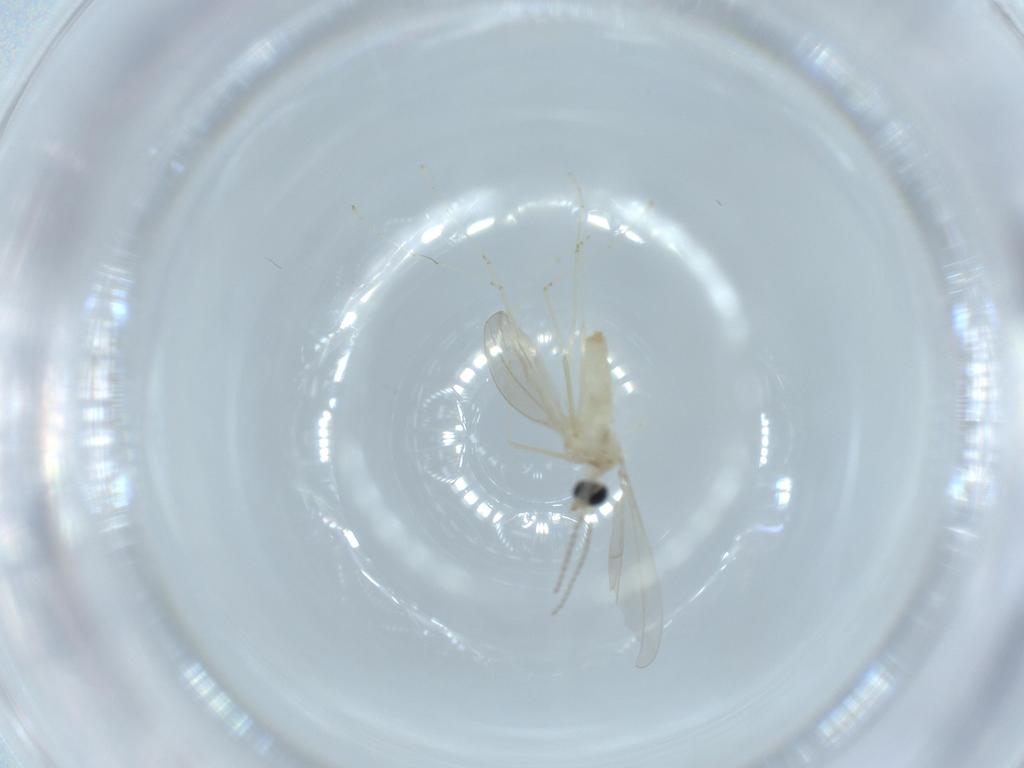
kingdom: Animalia
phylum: Arthropoda
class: Insecta
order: Diptera
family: Cecidomyiidae
